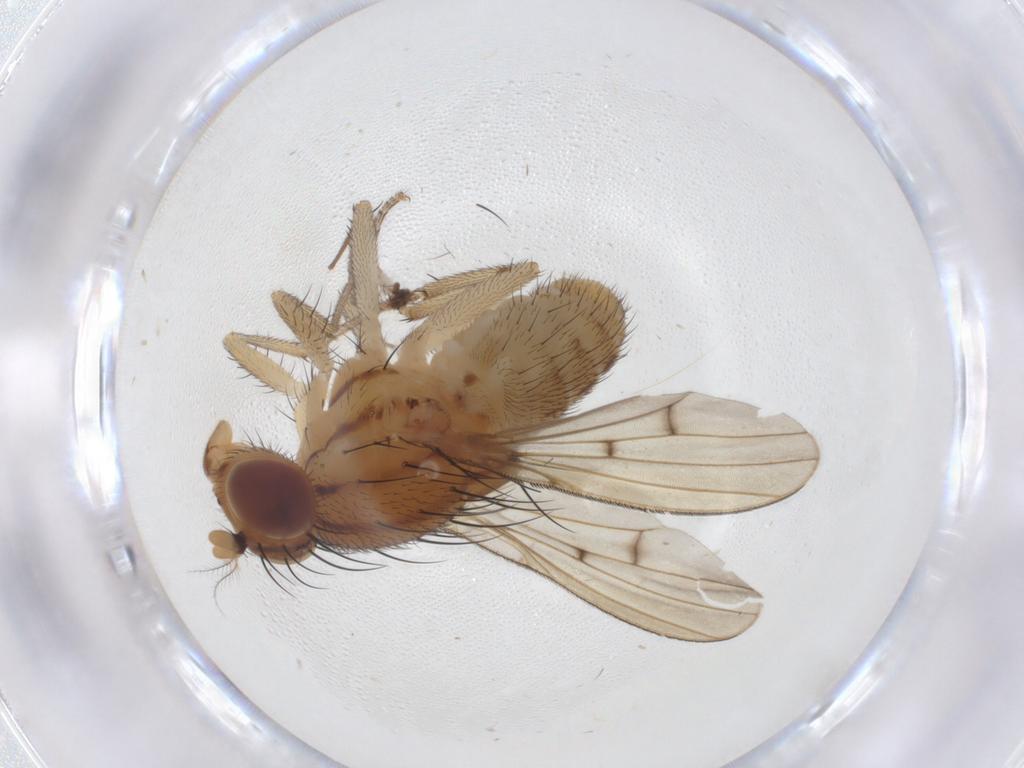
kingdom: Animalia
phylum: Arthropoda
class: Insecta
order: Diptera
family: Lauxaniidae
